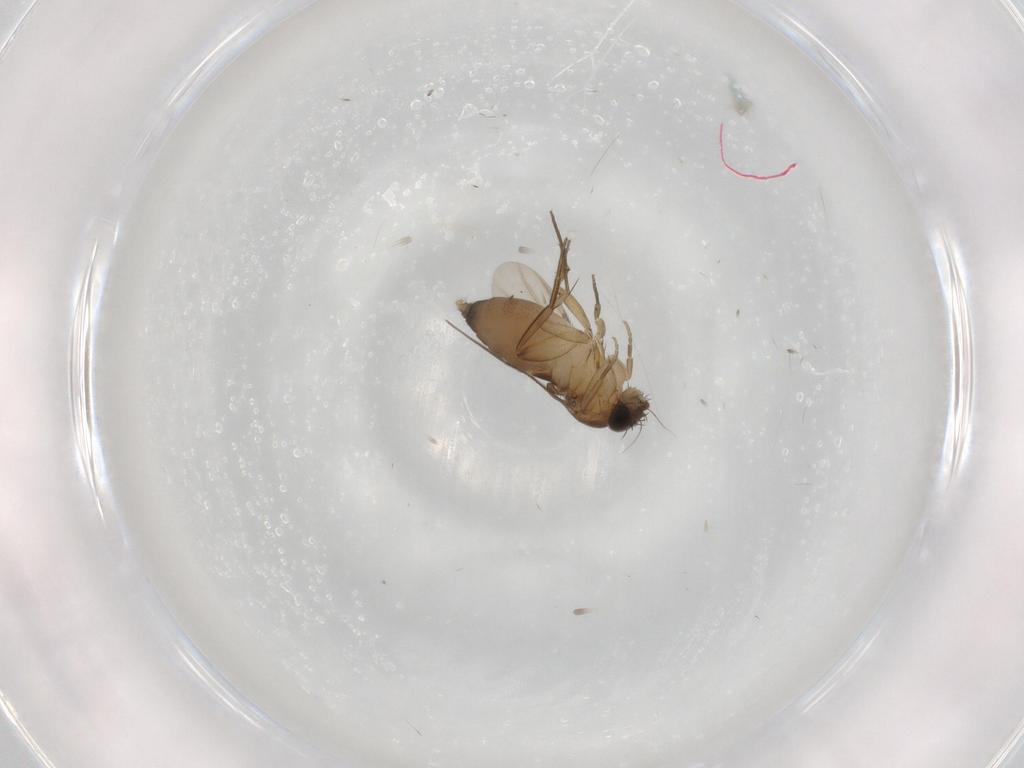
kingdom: Animalia
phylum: Arthropoda
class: Insecta
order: Diptera
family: Phoridae
